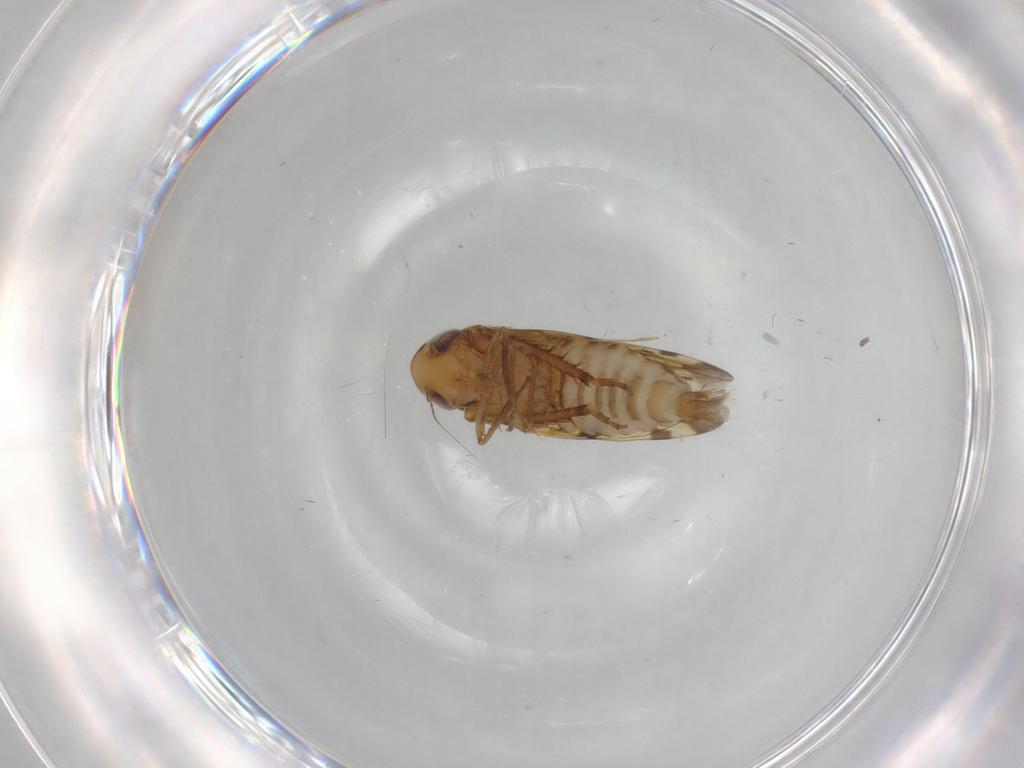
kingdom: Animalia
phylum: Arthropoda
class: Insecta
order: Hemiptera
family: Cicadellidae
